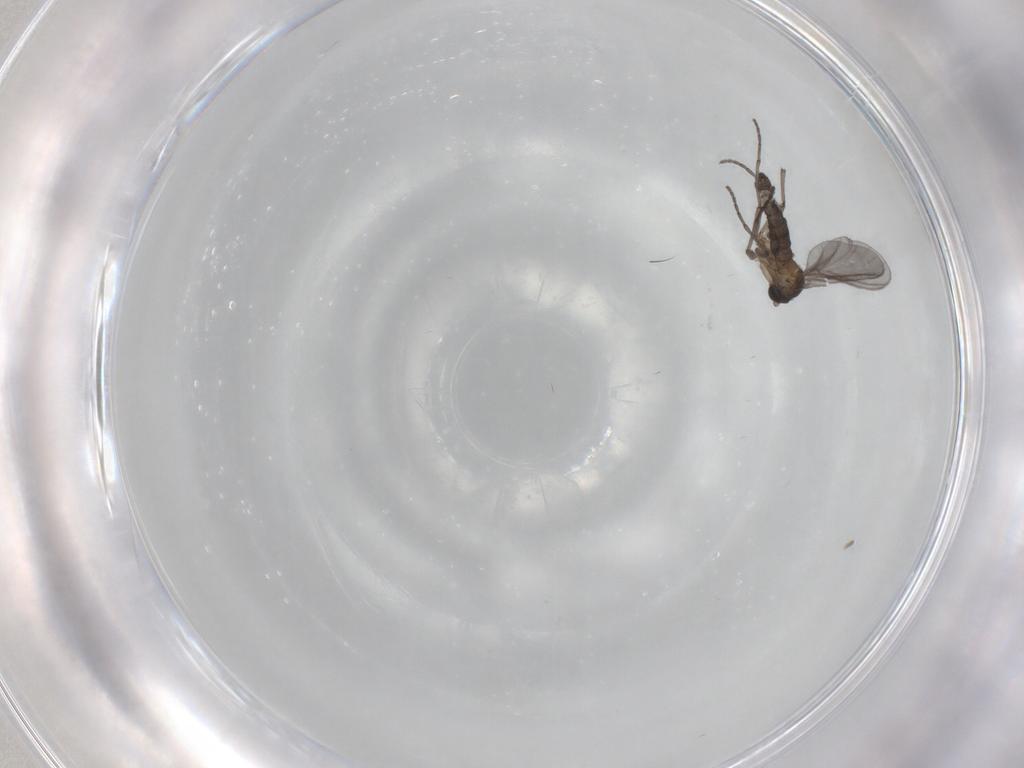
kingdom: Animalia
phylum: Arthropoda
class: Insecta
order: Diptera
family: Sciaridae
